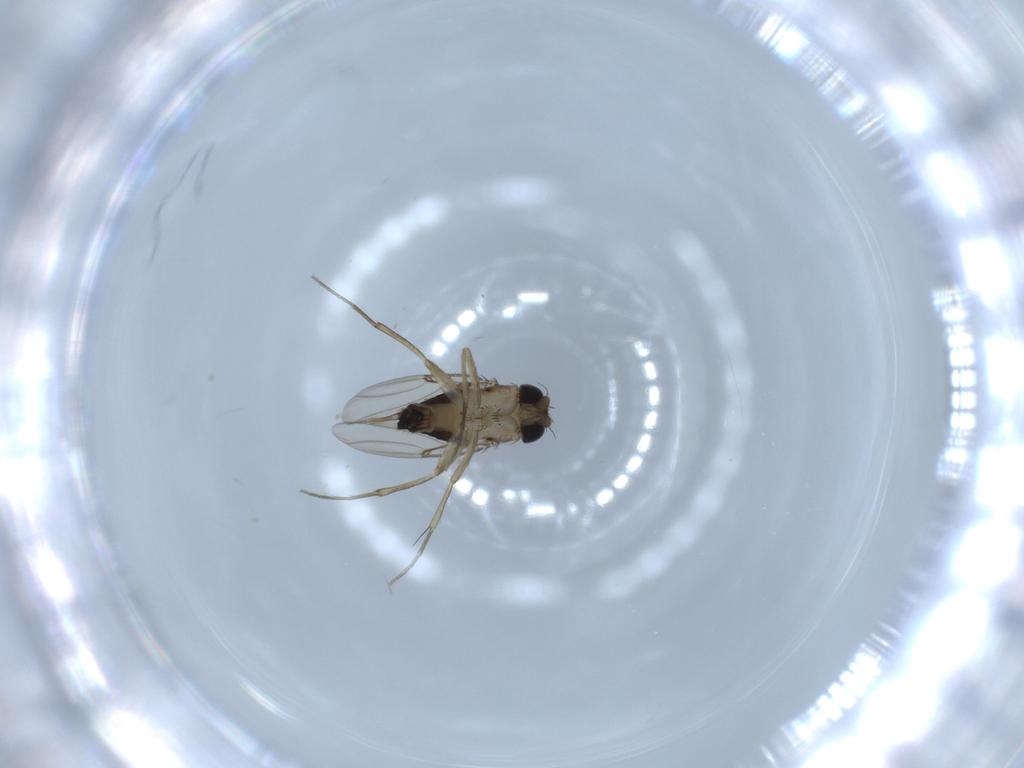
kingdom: Animalia
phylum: Arthropoda
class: Insecta
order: Diptera
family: Phoridae
